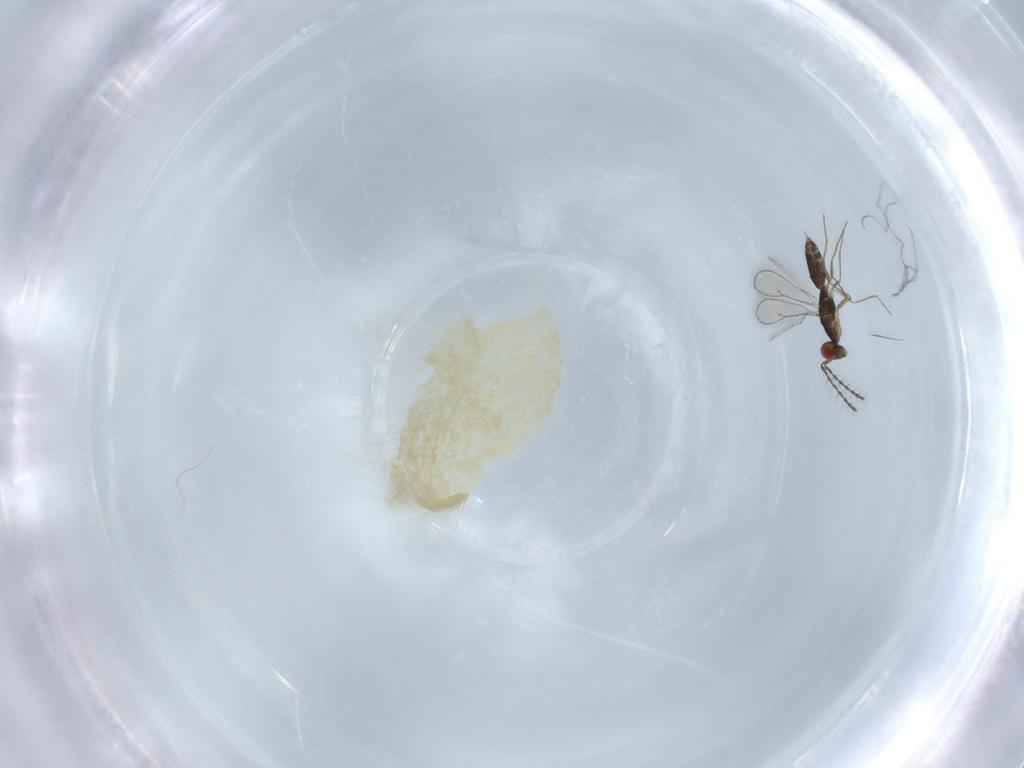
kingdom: Animalia
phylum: Arthropoda
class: Insecta
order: Hymenoptera
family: Eulophidae
